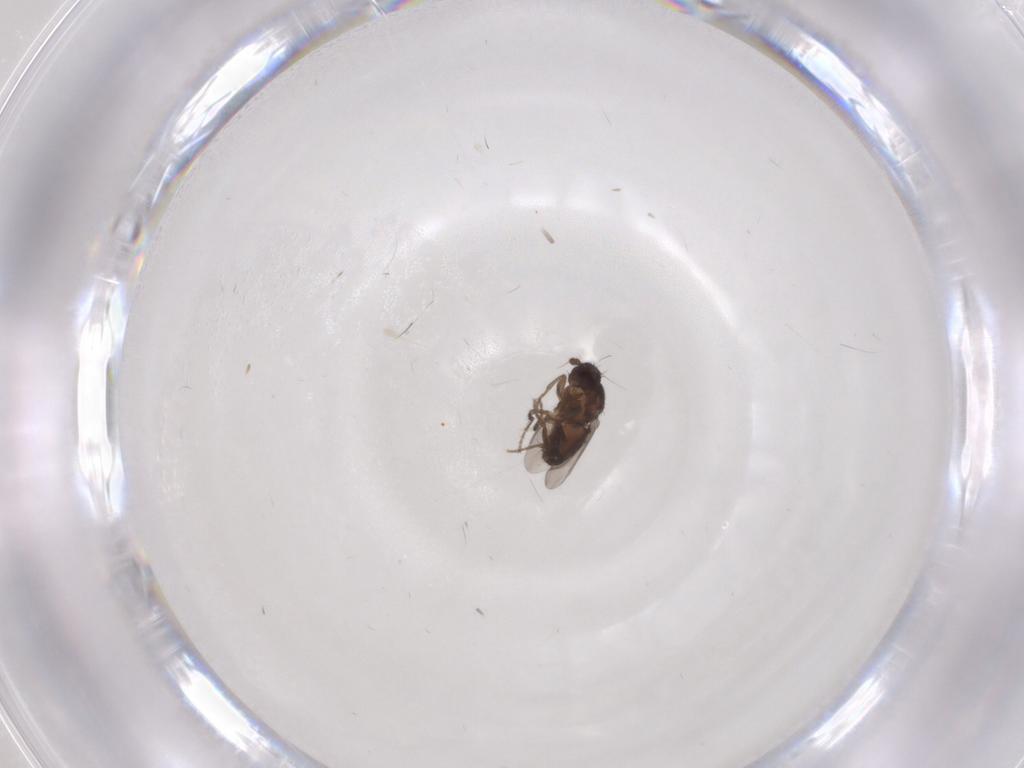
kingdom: Animalia
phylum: Arthropoda
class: Insecta
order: Diptera
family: Sphaeroceridae
